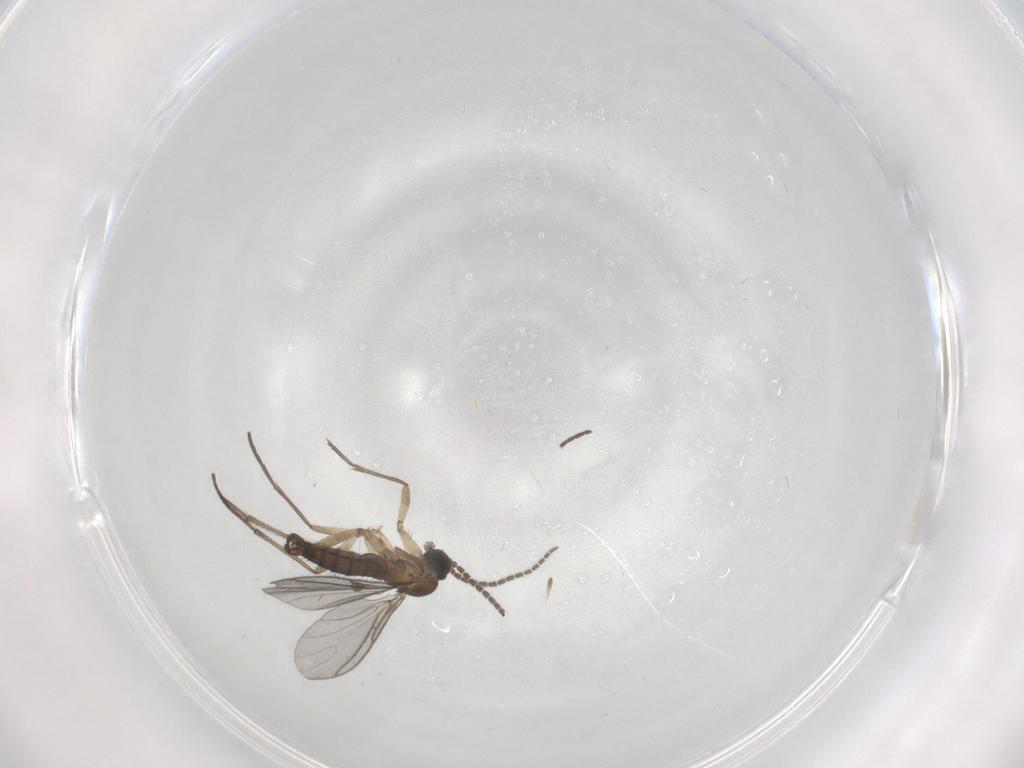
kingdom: Animalia
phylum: Arthropoda
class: Insecta
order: Diptera
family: Sciaridae
